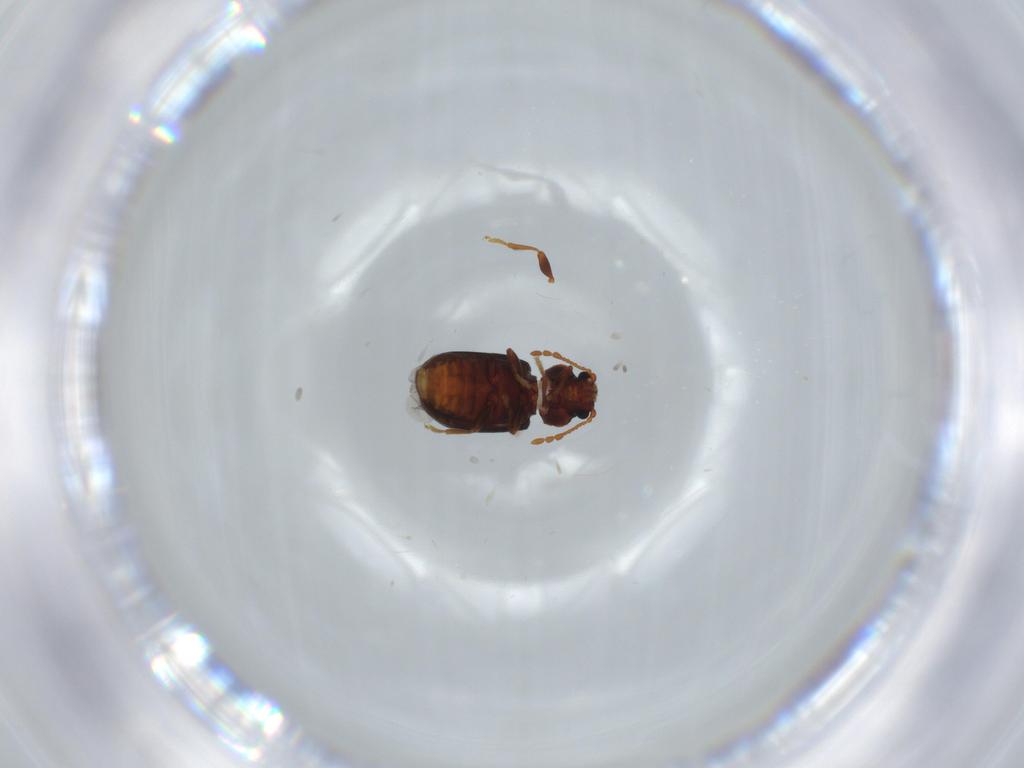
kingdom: Animalia
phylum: Arthropoda
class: Insecta
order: Coleoptera
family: Ptinidae
